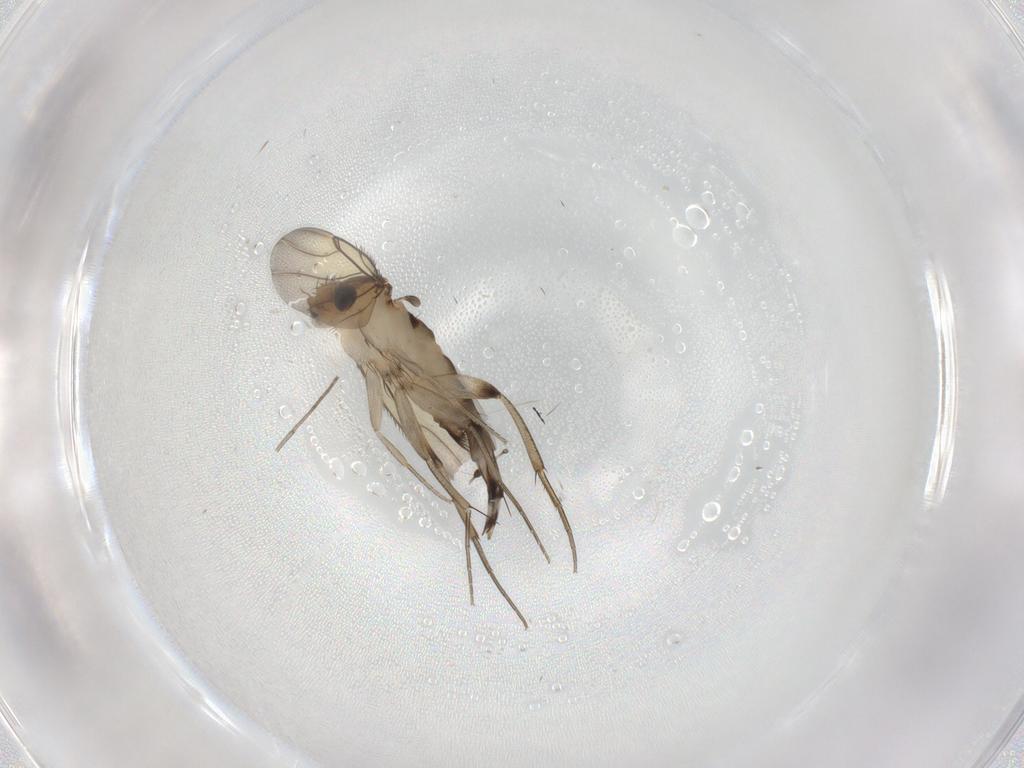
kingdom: Animalia
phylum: Arthropoda
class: Insecta
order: Diptera
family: Phoridae
